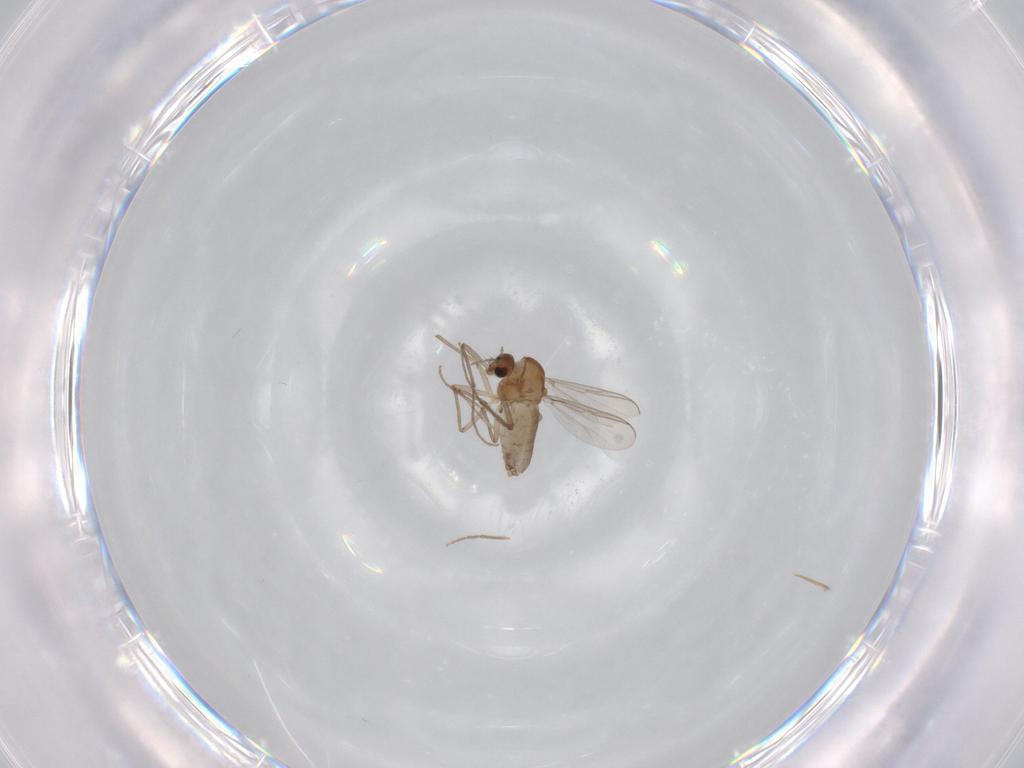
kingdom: Animalia
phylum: Arthropoda
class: Insecta
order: Diptera
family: Chironomidae
